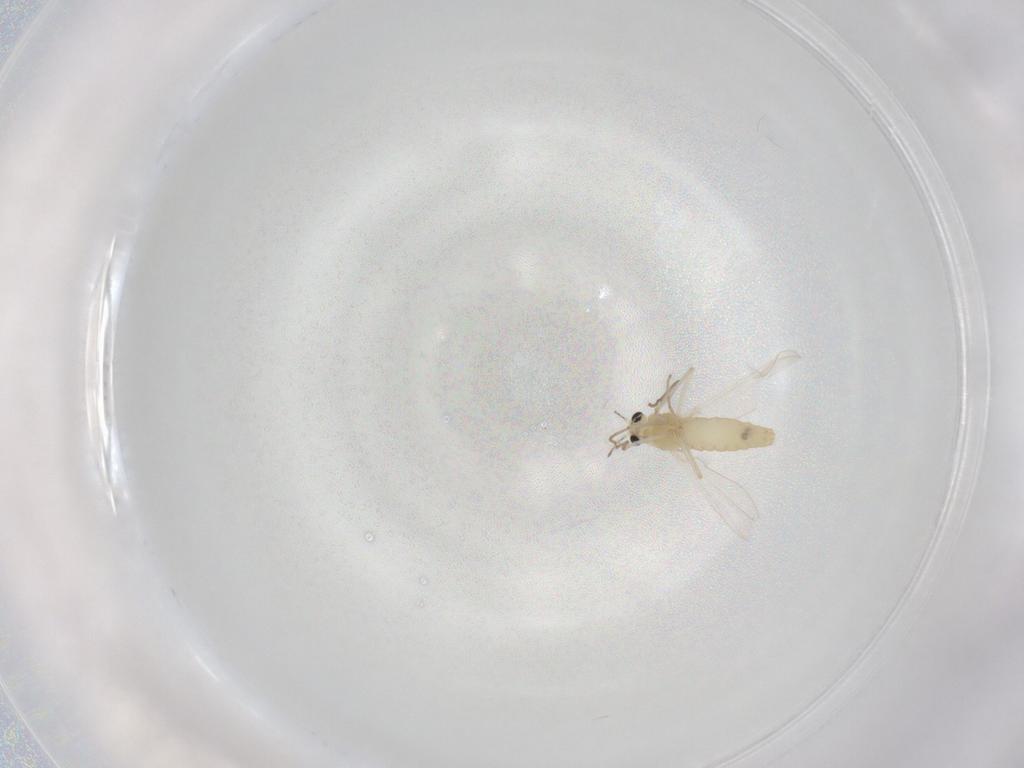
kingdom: Animalia
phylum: Arthropoda
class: Insecta
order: Diptera
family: Chironomidae
